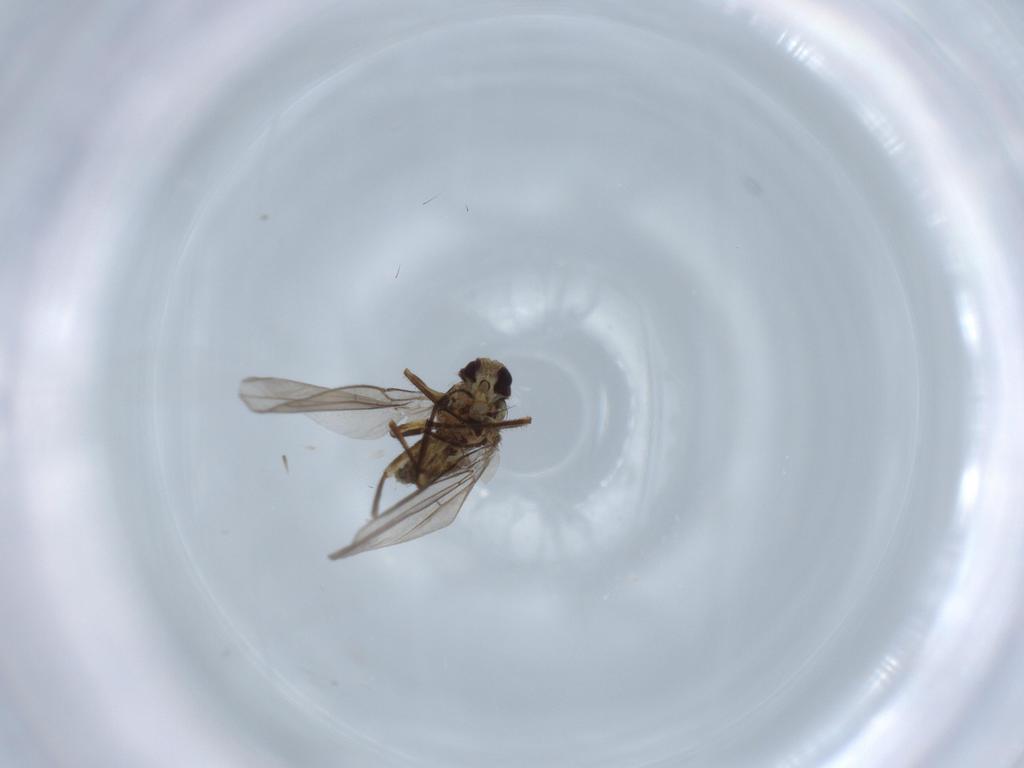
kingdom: Animalia
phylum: Arthropoda
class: Insecta
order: Diptera
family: Agromyzidae
